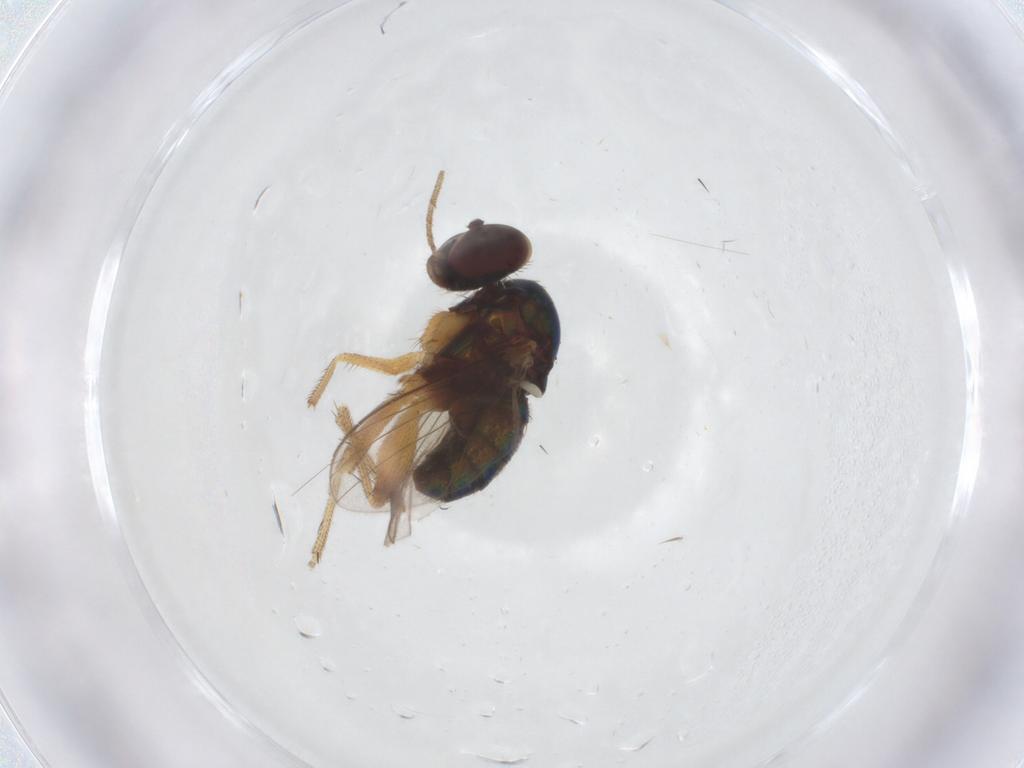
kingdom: Animalia
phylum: Arthropoda
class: Insecta
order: Diptera
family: Dolichopodidae
